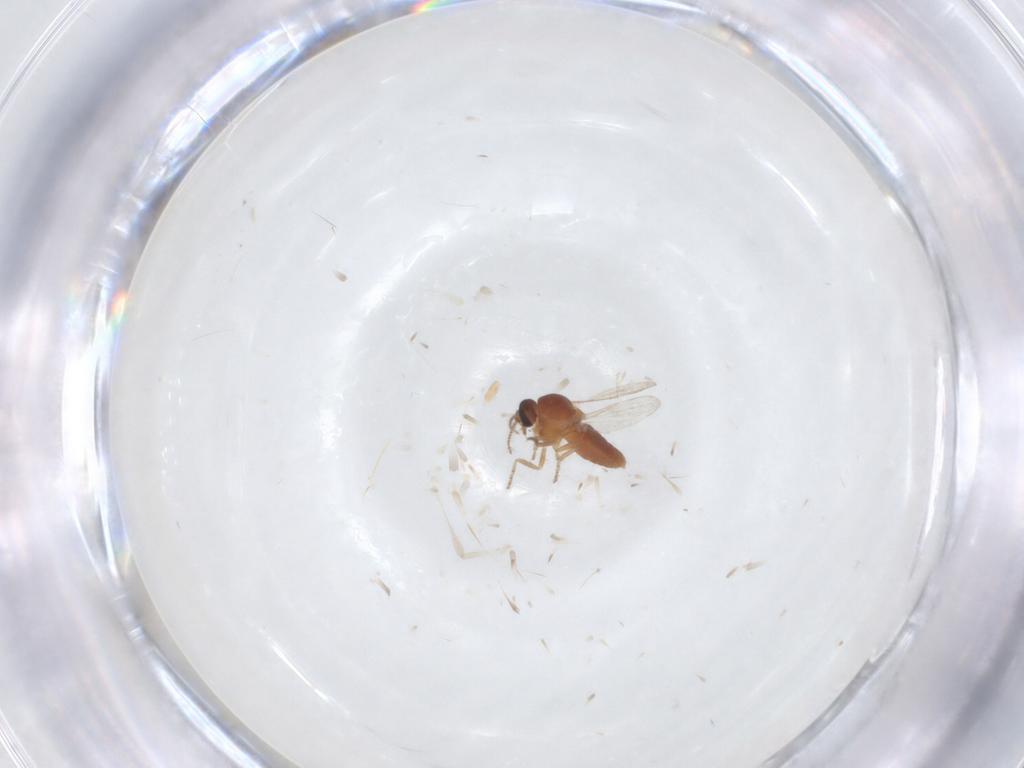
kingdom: Animalia
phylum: Arthropoda
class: Insecta
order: Diptera
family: Ceratopogonidae
